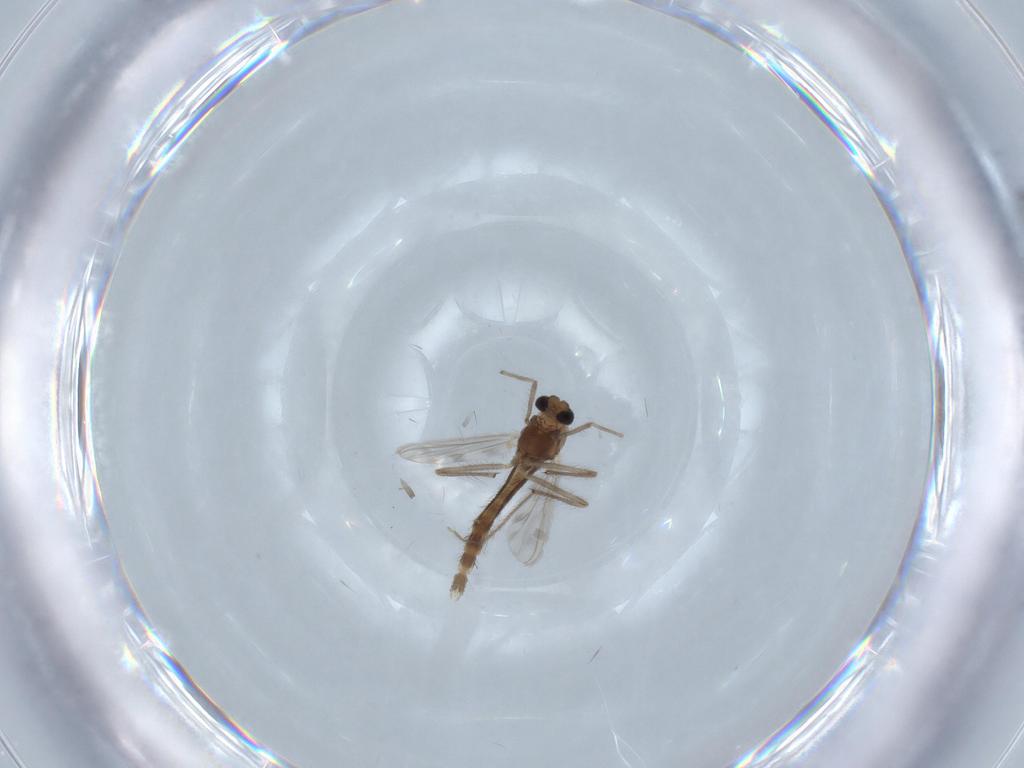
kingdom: Animalia
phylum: Arthropoda
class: Insecta
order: Diptera
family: Chironomidae
